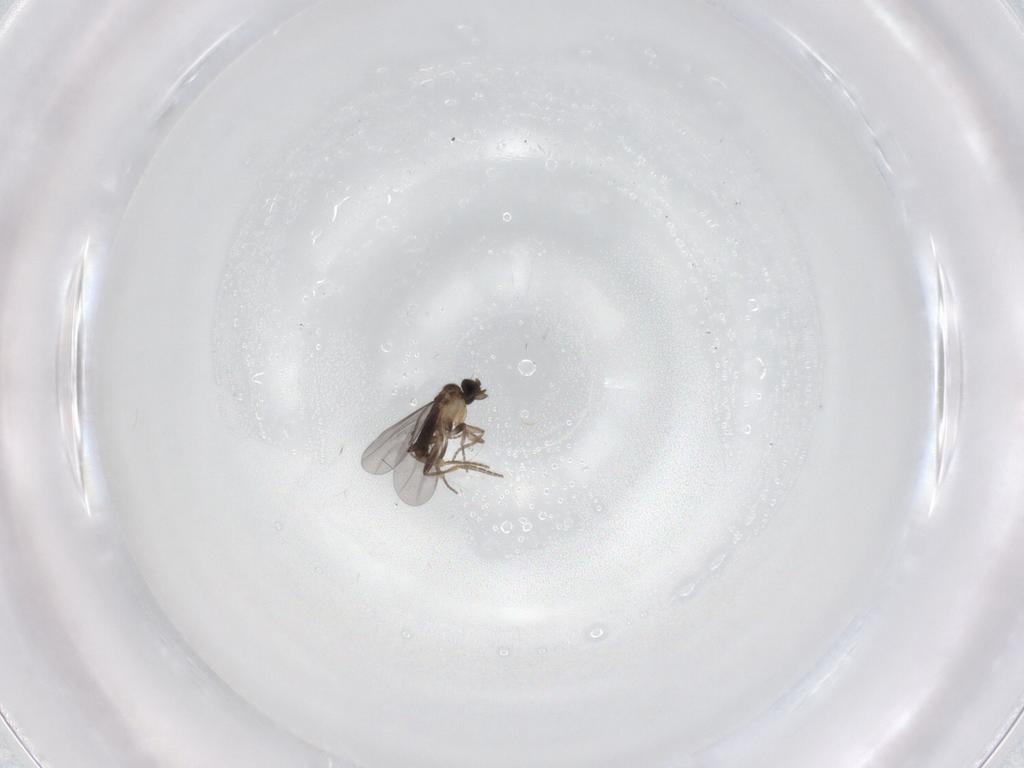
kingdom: Animalia
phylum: Arthropoda
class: Insecta
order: Diptera
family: Chironomidae
